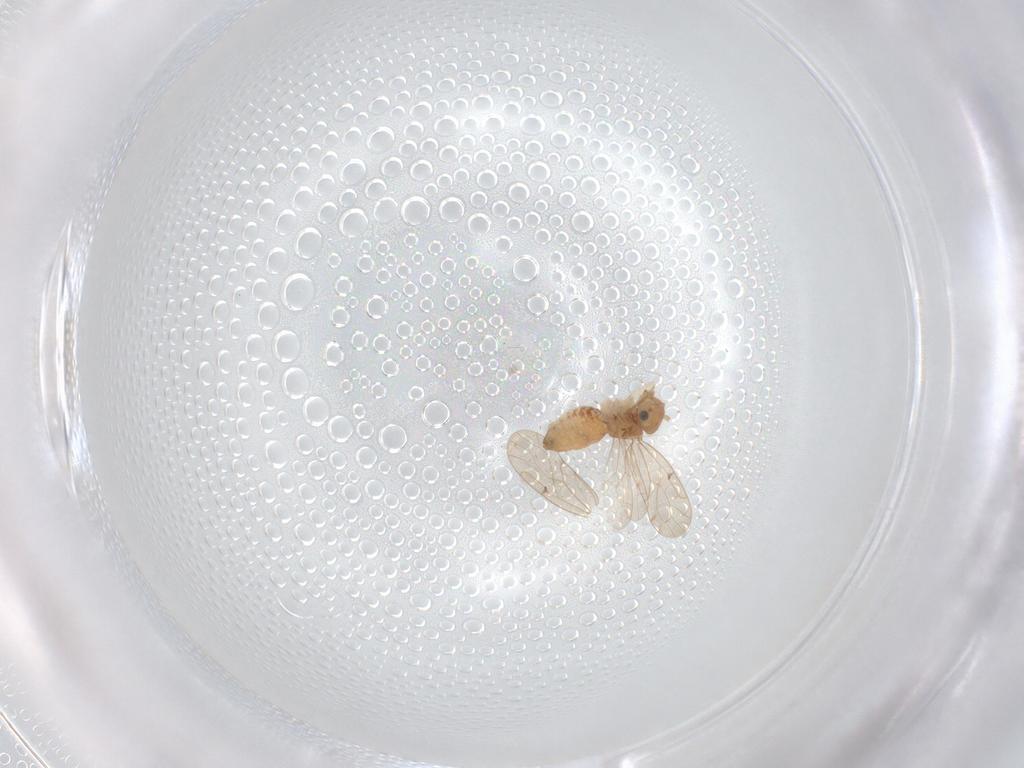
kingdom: Animalia
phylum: Arthropoda
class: Insecta
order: Psocodea
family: Ectopsocidae
